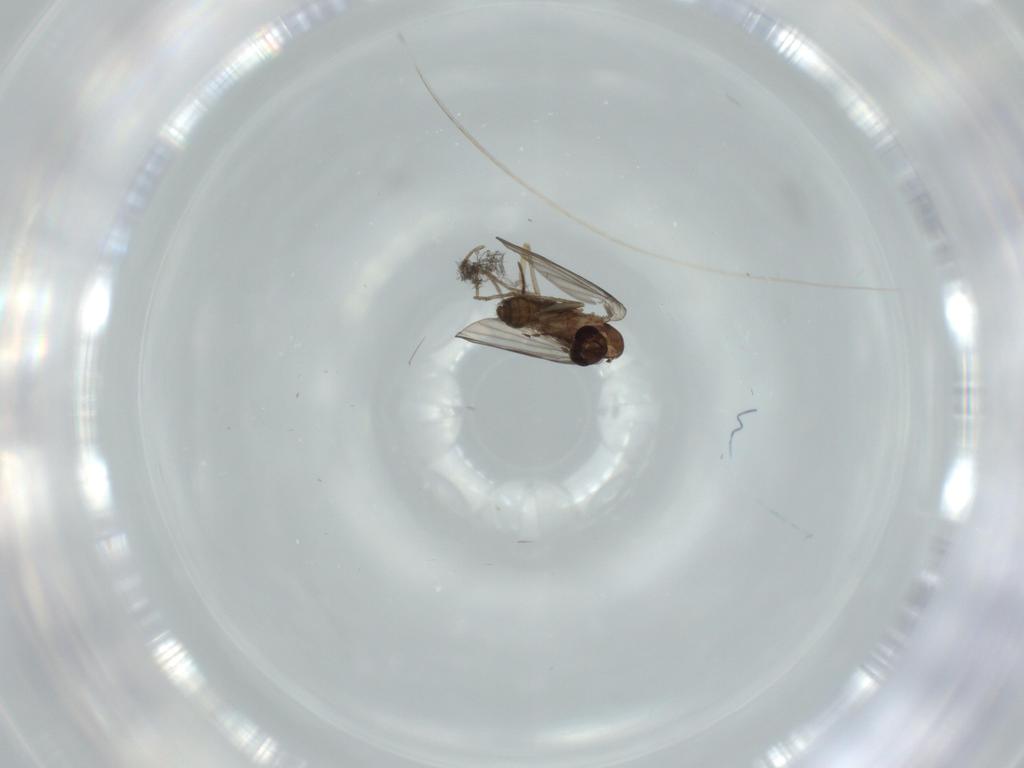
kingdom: Animalia
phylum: Arthropoda
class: Insecta
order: Diptera
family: Psychodidae
